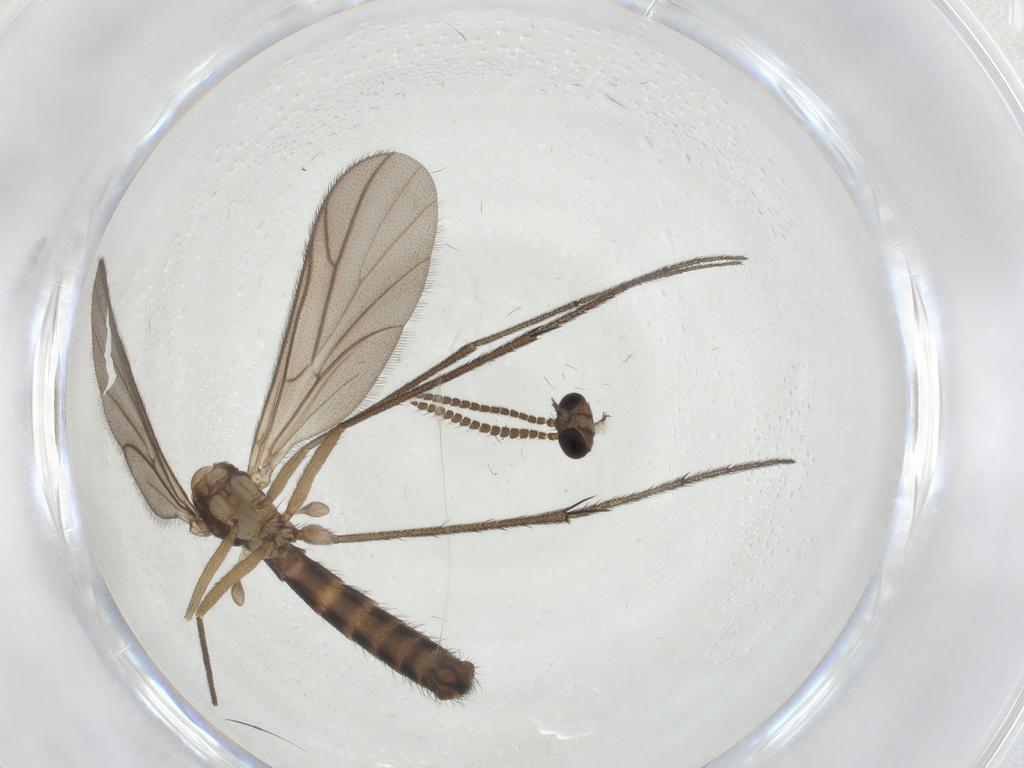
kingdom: Animalia
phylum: Arthropoda
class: Insecta
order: Diptera
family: Ditomyiidae
